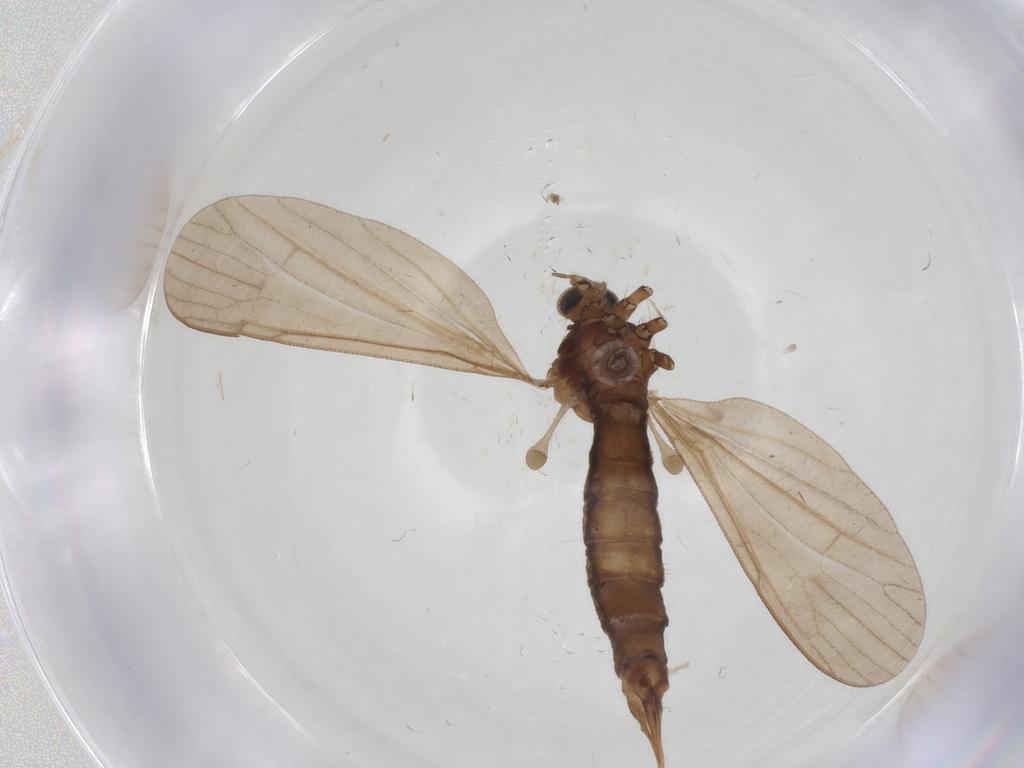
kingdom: Animalia
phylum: Arthropoda
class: Insecta
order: Diptera
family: Limoniidae
